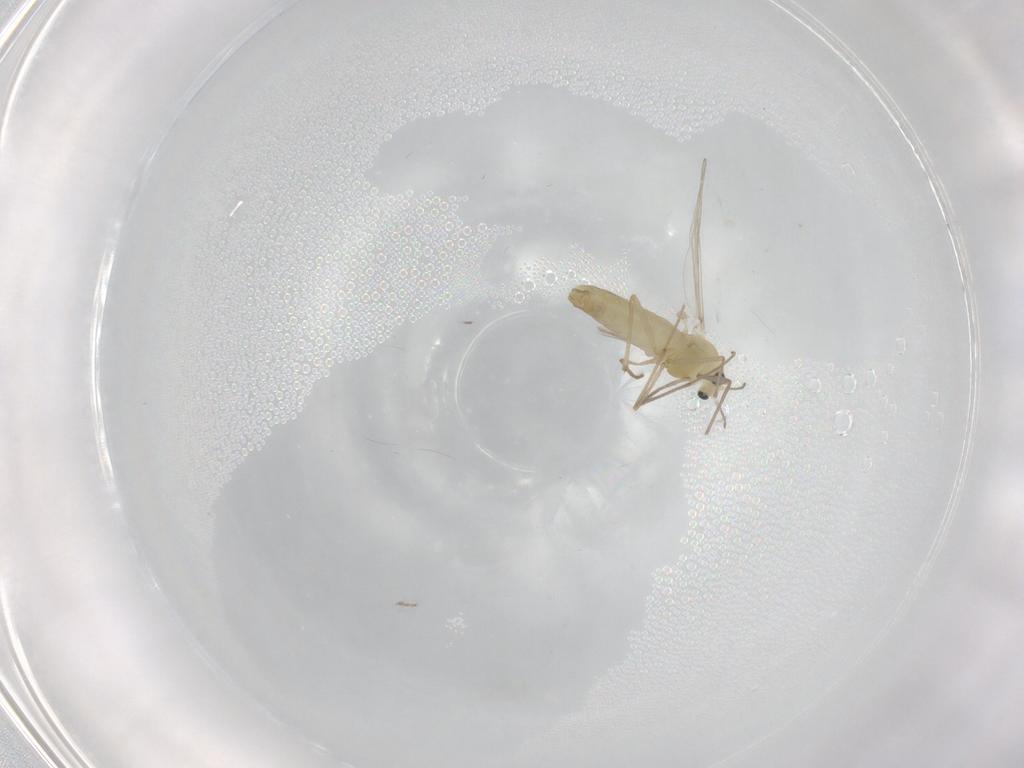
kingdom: Animalia
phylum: Arthropoda
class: Insecta
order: Diptera
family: Chironomidae
